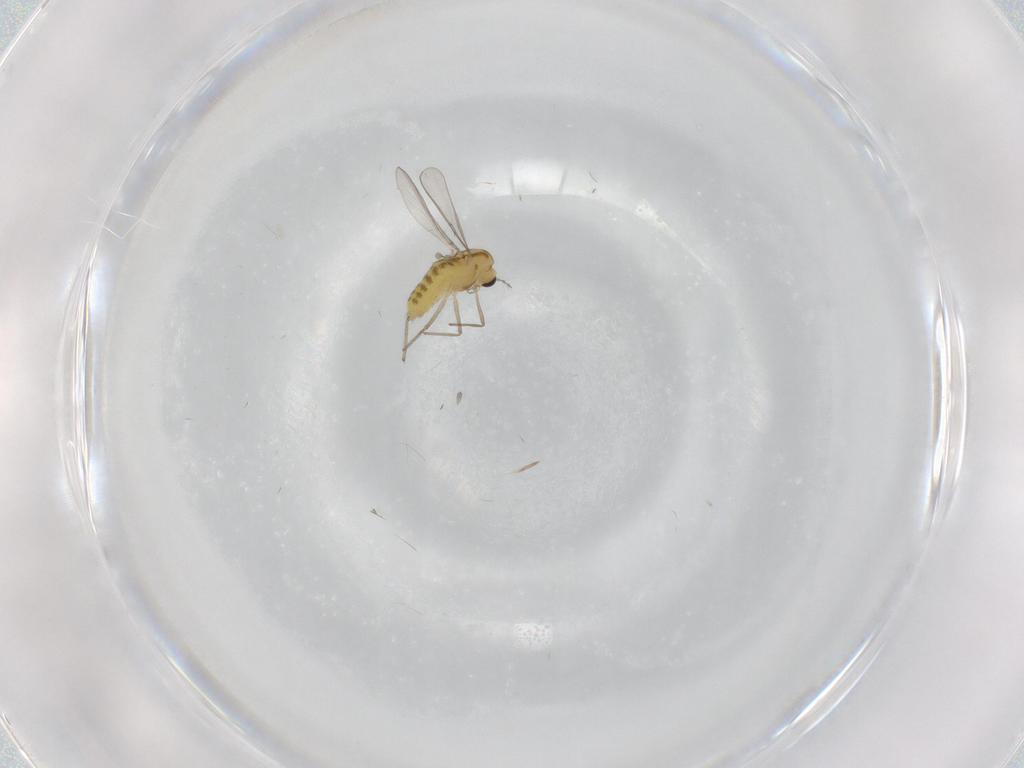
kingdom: Animalia
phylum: Arthropoda
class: Insecta
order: Diptera
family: Chironomidae
